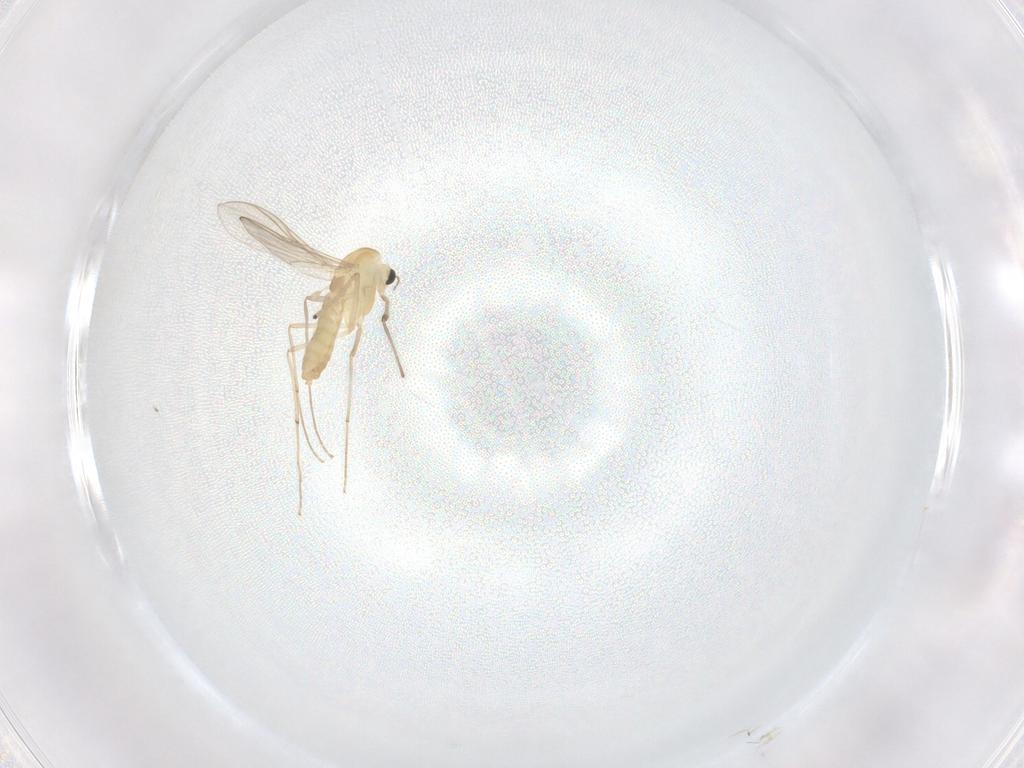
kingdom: Animalia
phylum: Arthropoda
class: Insecta
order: Diptera
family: Chironomidae
